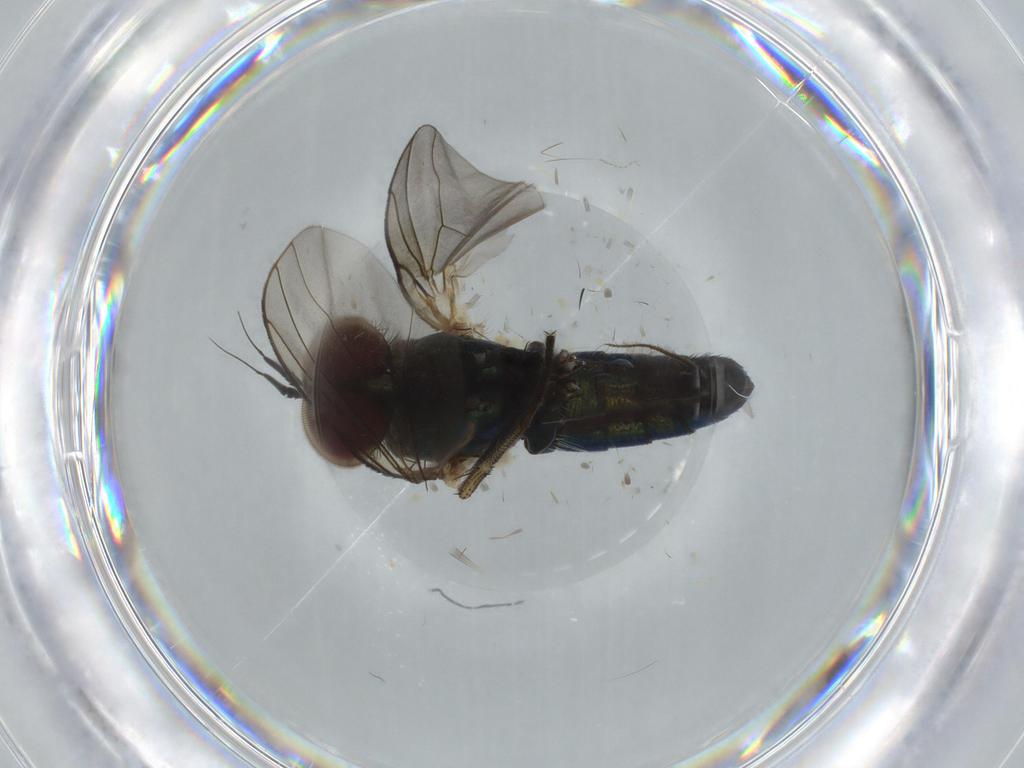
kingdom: Animalia
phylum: Arthropoda
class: Insecta
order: Diptera
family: Dolichopodidae
